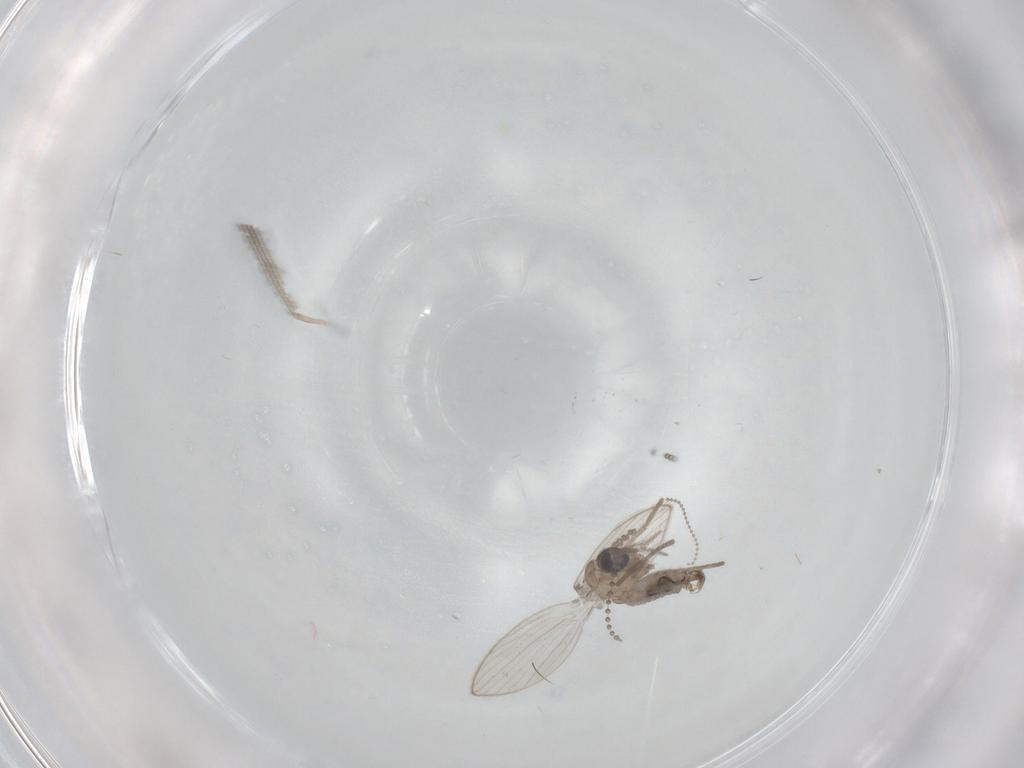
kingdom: Animalia
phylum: Arthropoda
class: Insecta
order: Diptera
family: Psychodidae
